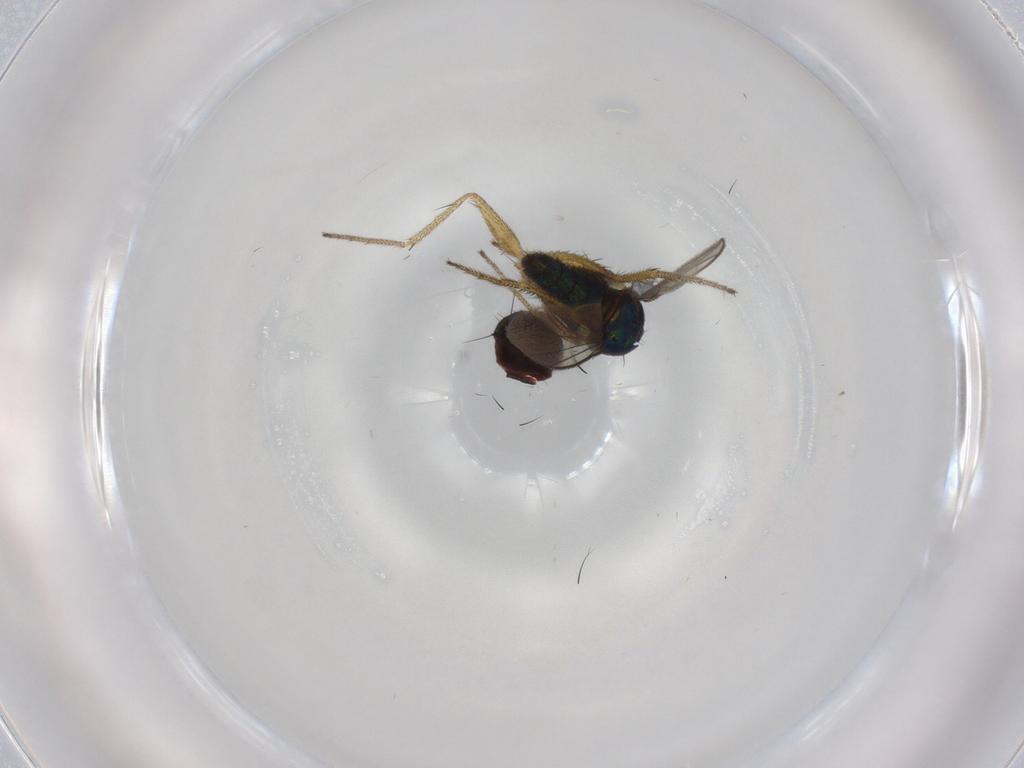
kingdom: Animalia
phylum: Arthropoda
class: Insecta
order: Diptera
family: Dolichopodidae
